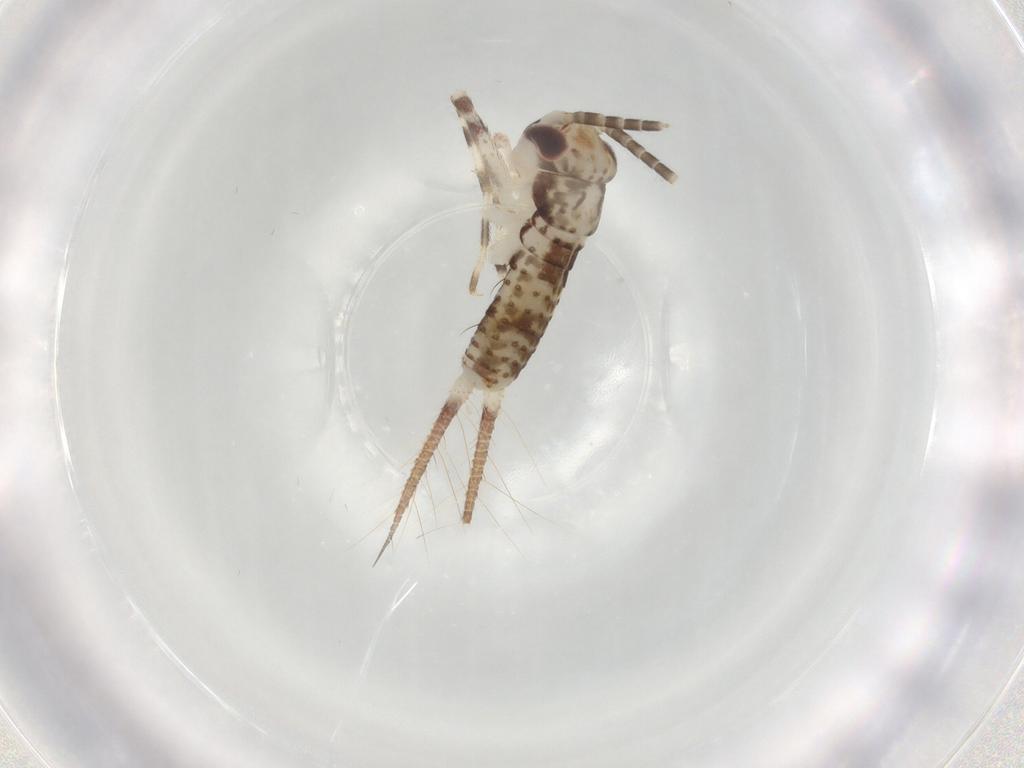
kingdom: Animalia
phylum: Arthropoda
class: Insecta
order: Orthoptera
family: Gryllidae
